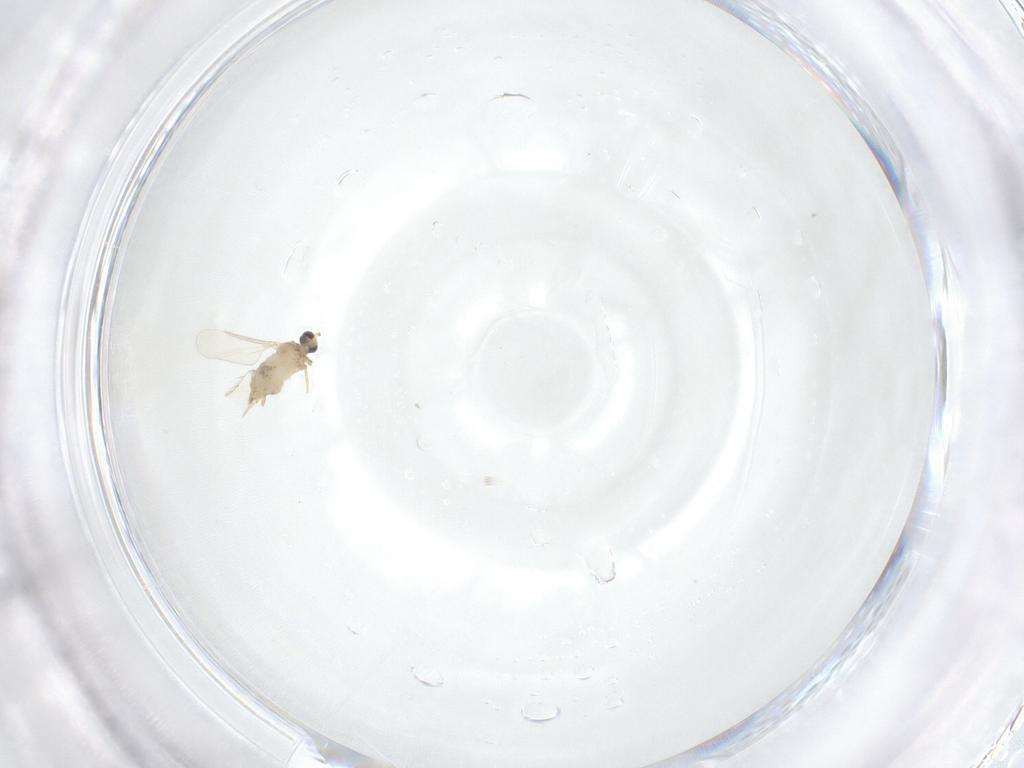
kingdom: Animalia
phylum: Arthropoda
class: Insecta
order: Diptera
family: Cecidomyiidae
